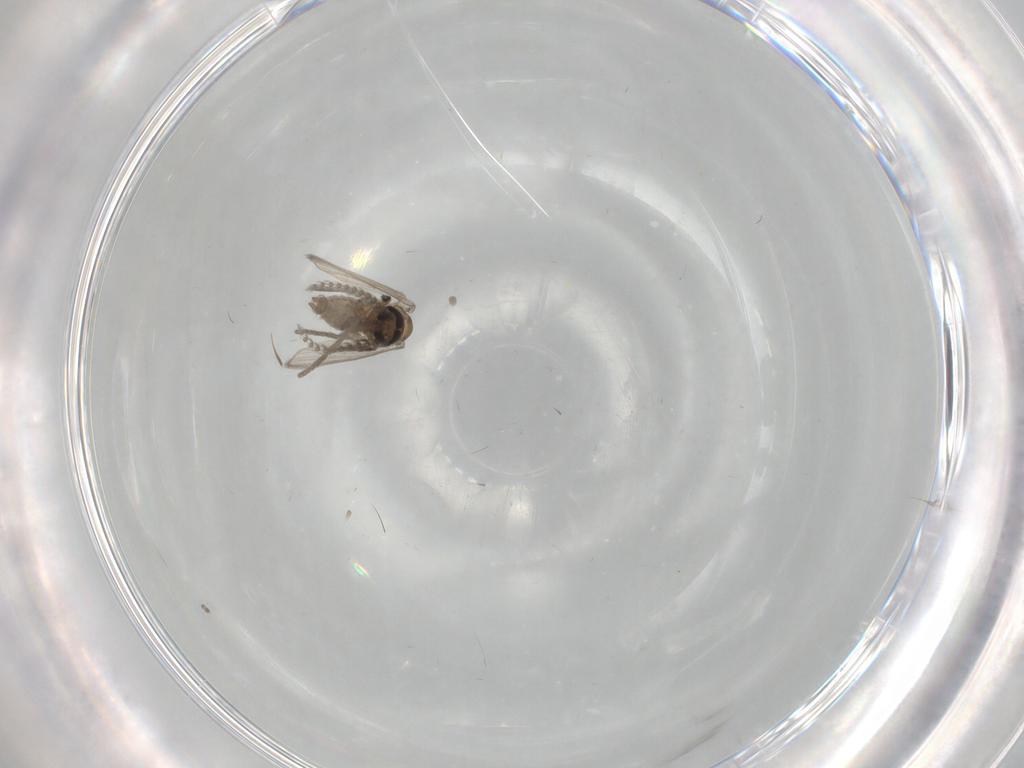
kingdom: Animalia
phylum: Arthropoda
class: Insecta
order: Diptera
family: Psychodidae
